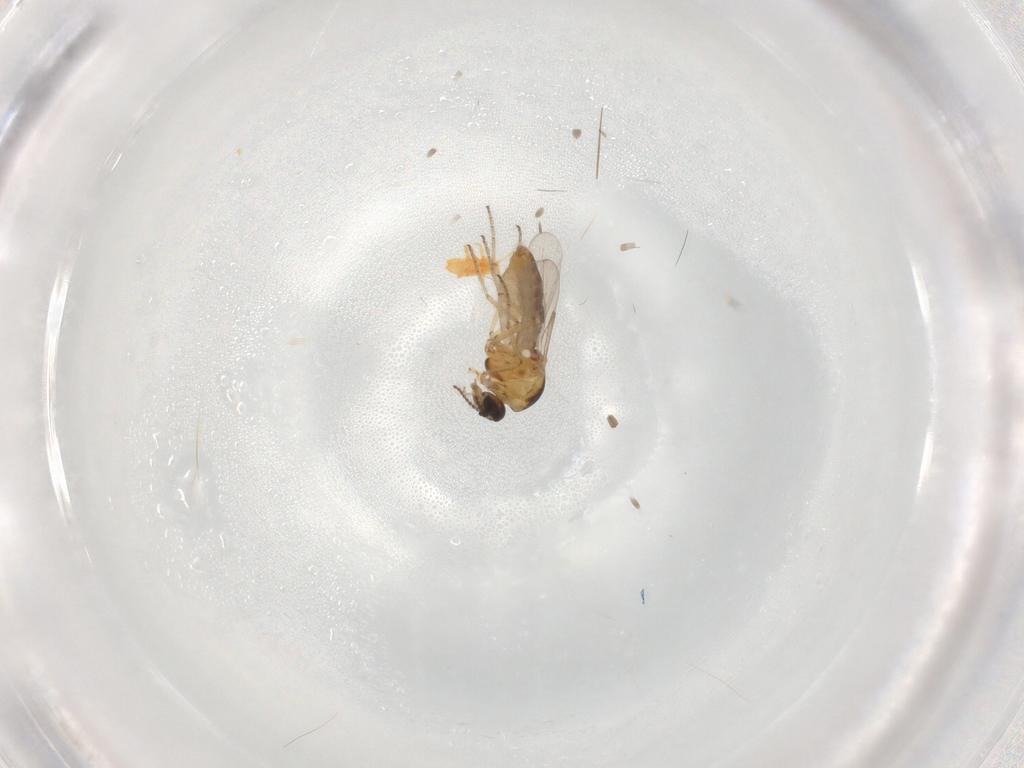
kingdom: Animalia
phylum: Arthropoda
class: Insecta
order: Diptera
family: Ceratopogonidae
